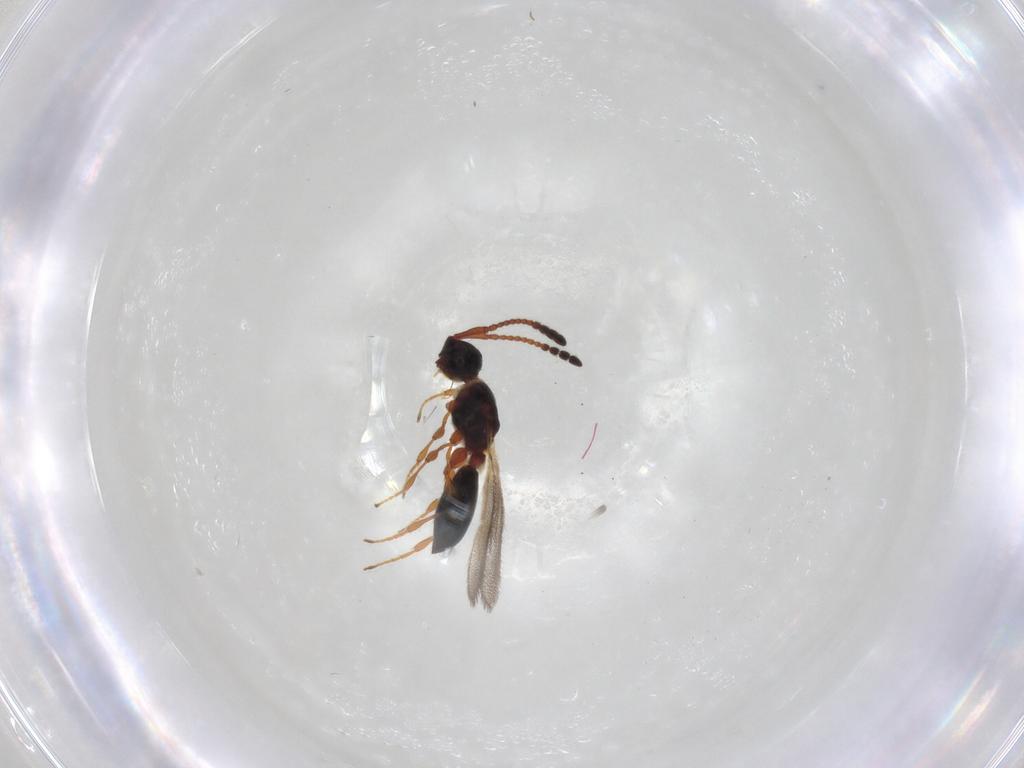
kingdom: Animalia
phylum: Arthropoda
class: Insecta
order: Hymenoptera
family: Diapriidae
